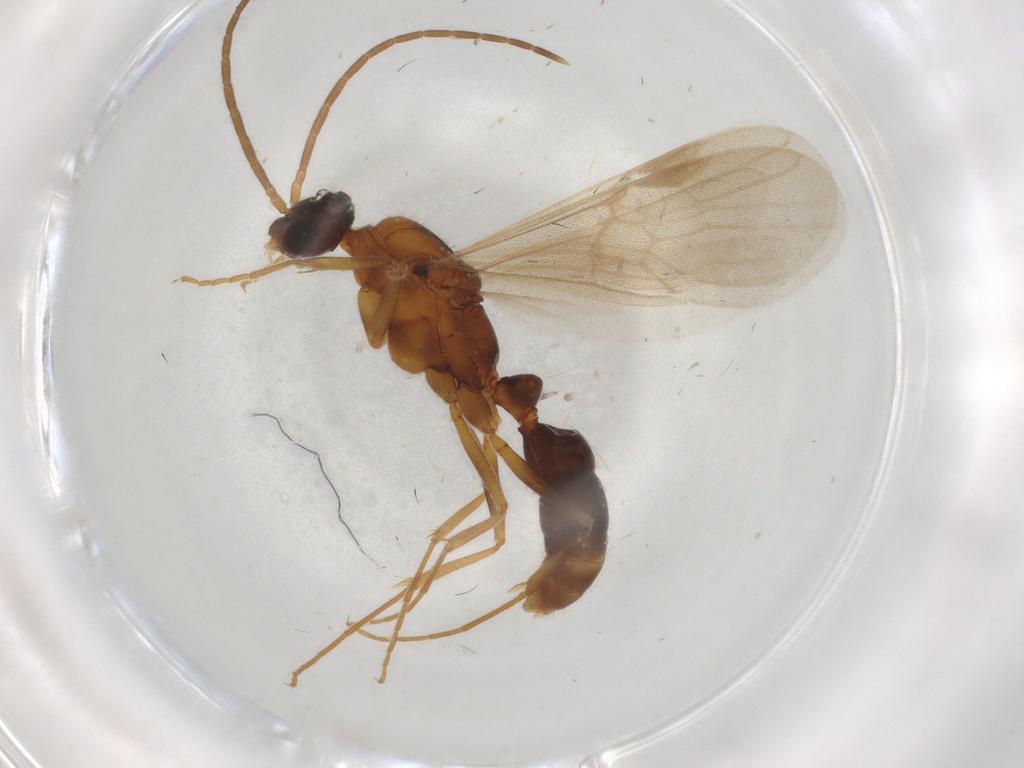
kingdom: Animalia
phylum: Arthropoda
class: Insecta
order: Hymenoptera
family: Formicidae
